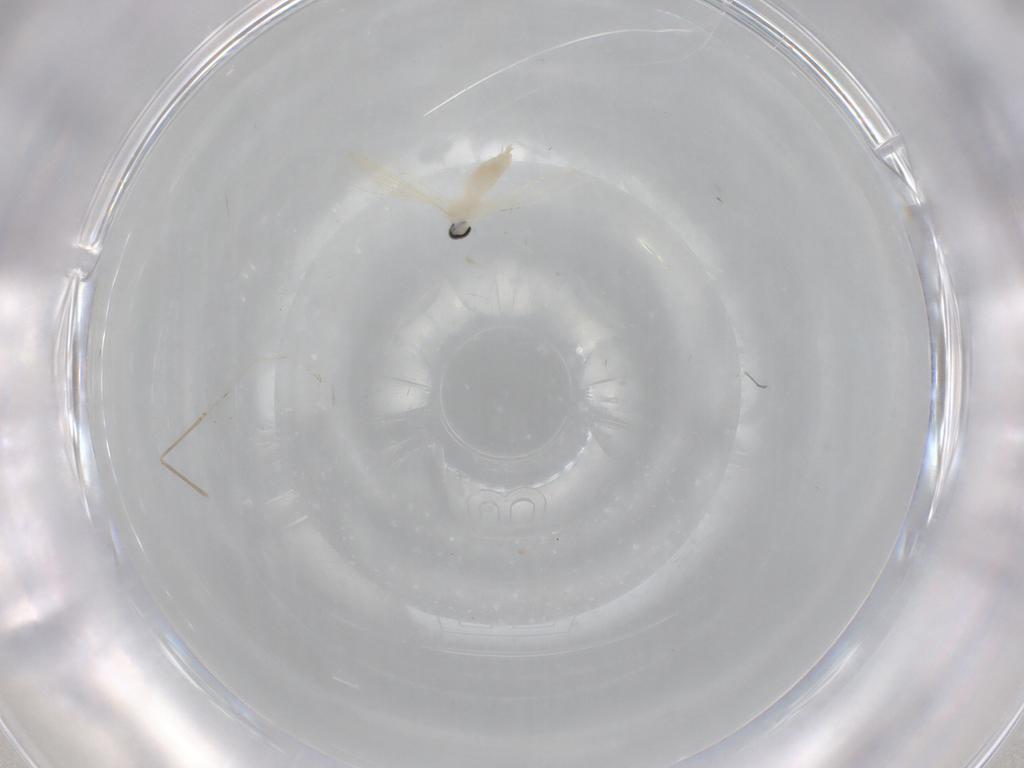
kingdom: Animalia
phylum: Arthropoda
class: Insecta
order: Diptera
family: Cecidomyiidae
